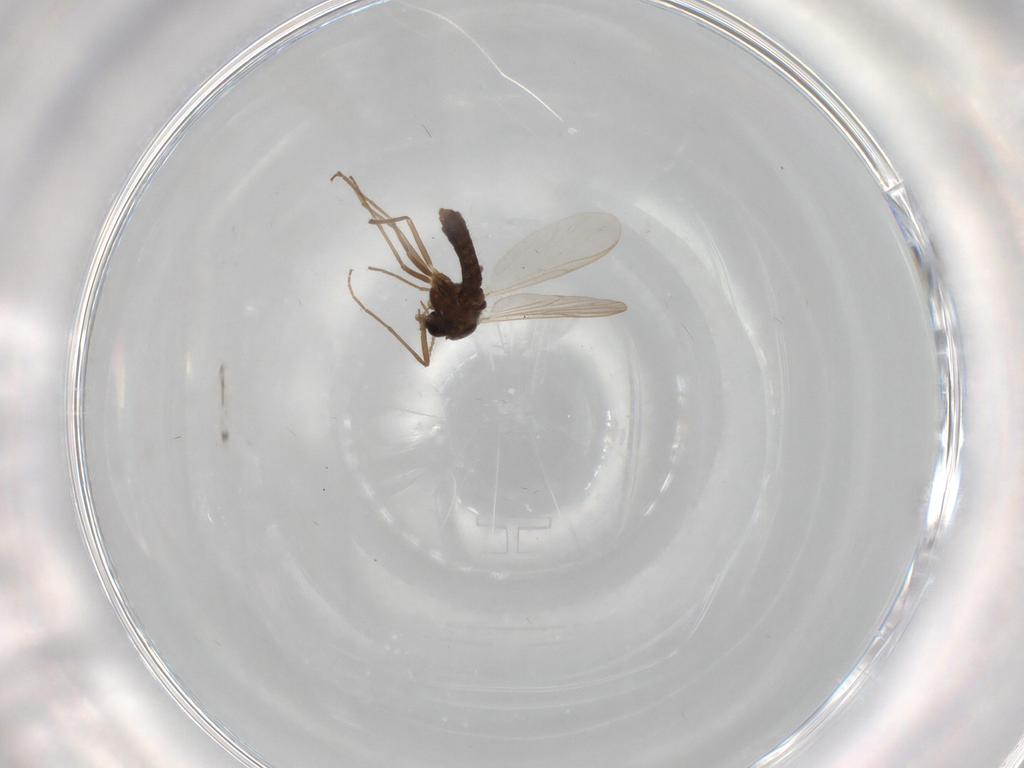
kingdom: Animalia
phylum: Arthropoda
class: Insecta
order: Diptera
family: Chironomidae
